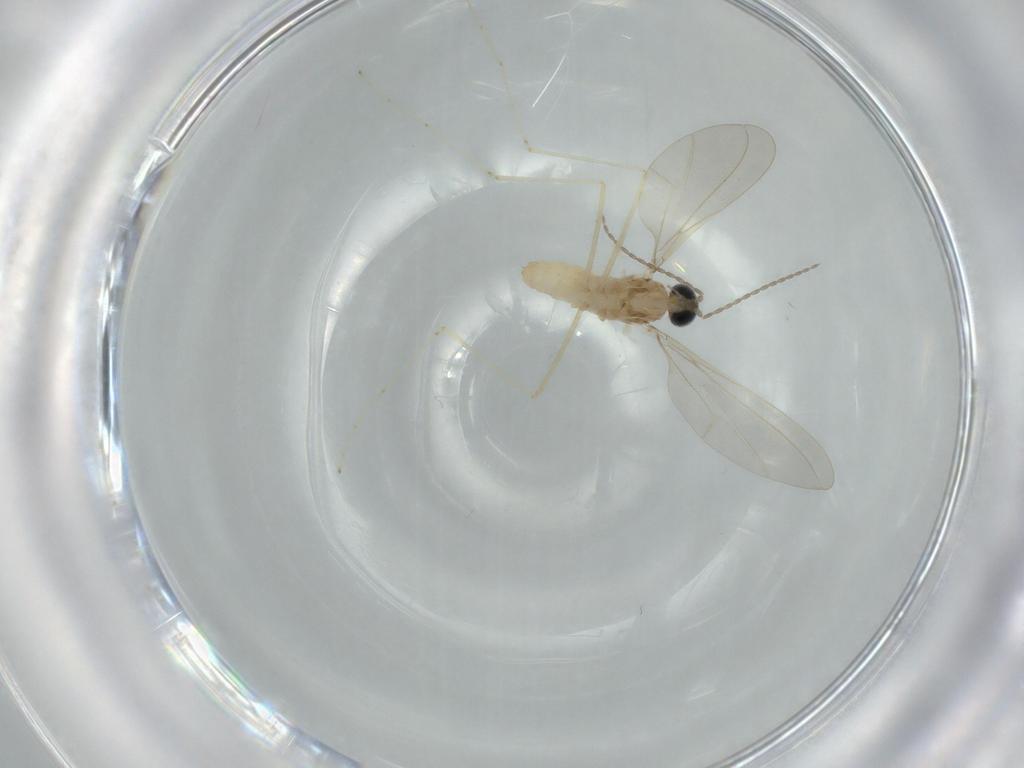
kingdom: Animalia
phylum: Arthropoda
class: Insecta
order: Diptera
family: Cecidomyiidae
